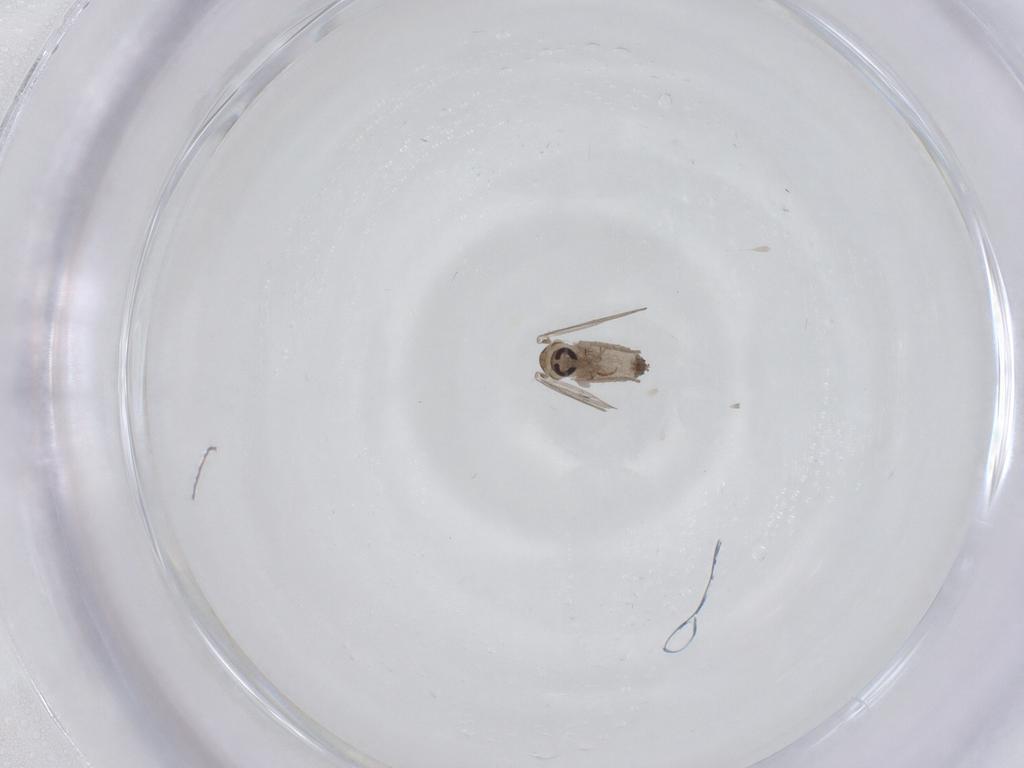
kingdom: Animalia
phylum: Arthropoda
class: Insecta
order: Diptera
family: Psychodidae
